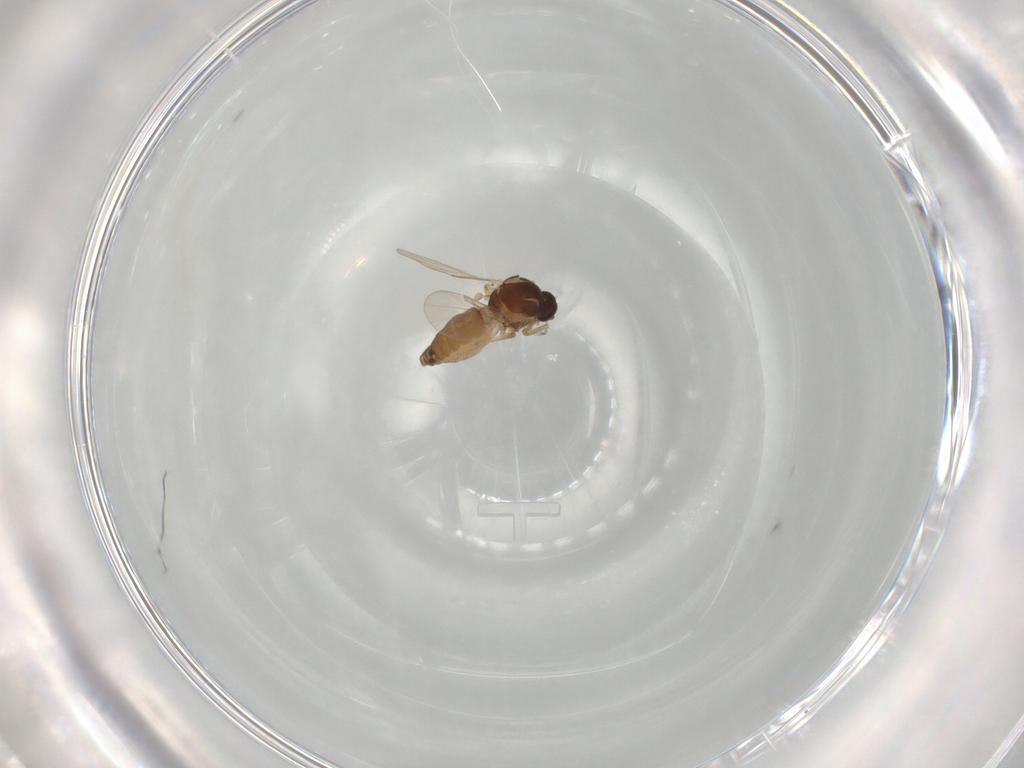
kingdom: Animalia
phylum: Arthropoda
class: Insecta
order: Diptera
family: Ceratopogonidae
